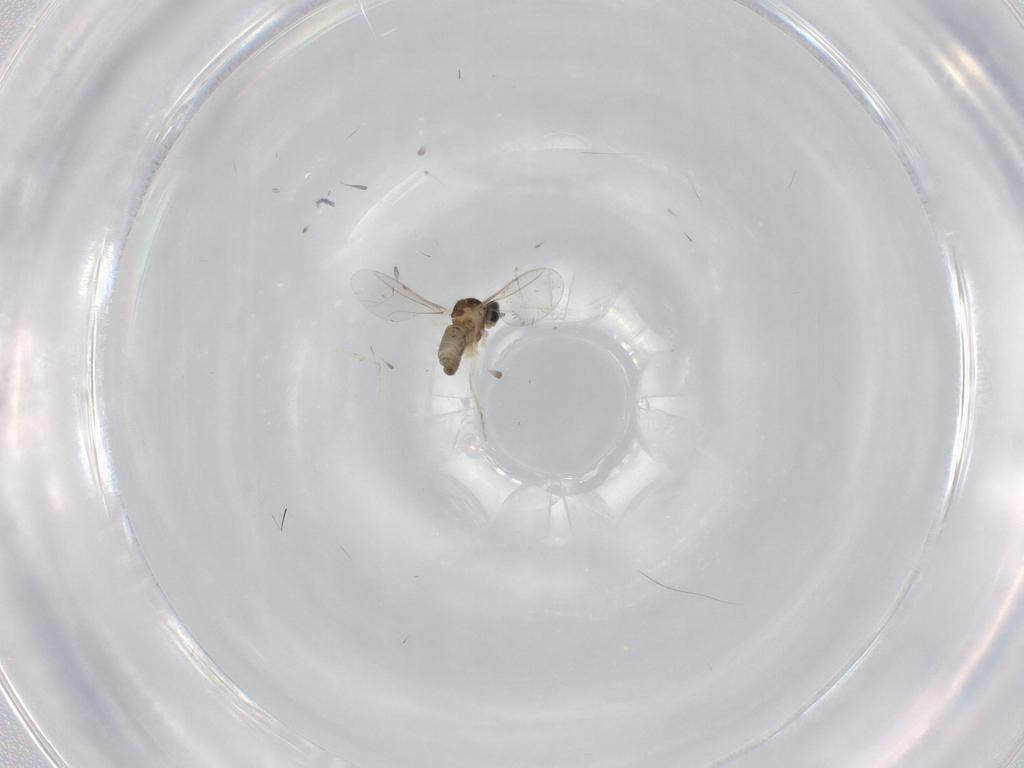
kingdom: Animalia
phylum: Arthropoda
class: Insecta
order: Diptera
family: Cecidomyiidae
